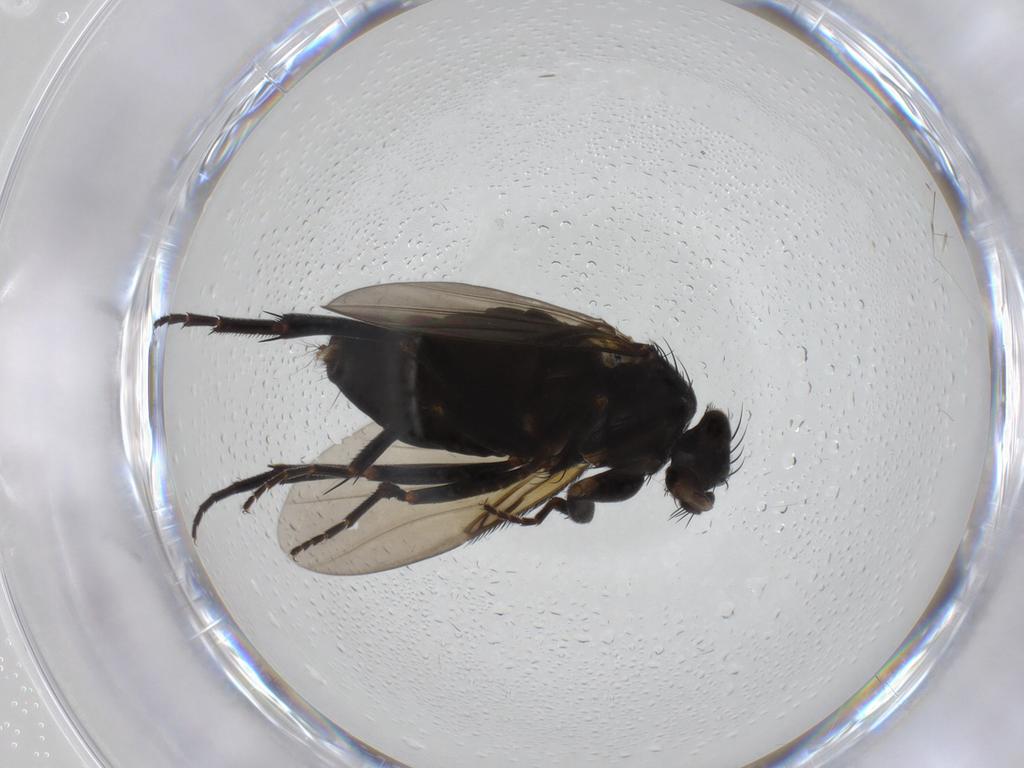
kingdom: Animalia
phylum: Arthropoda
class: Insecta
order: Diptera
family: Phoridae
